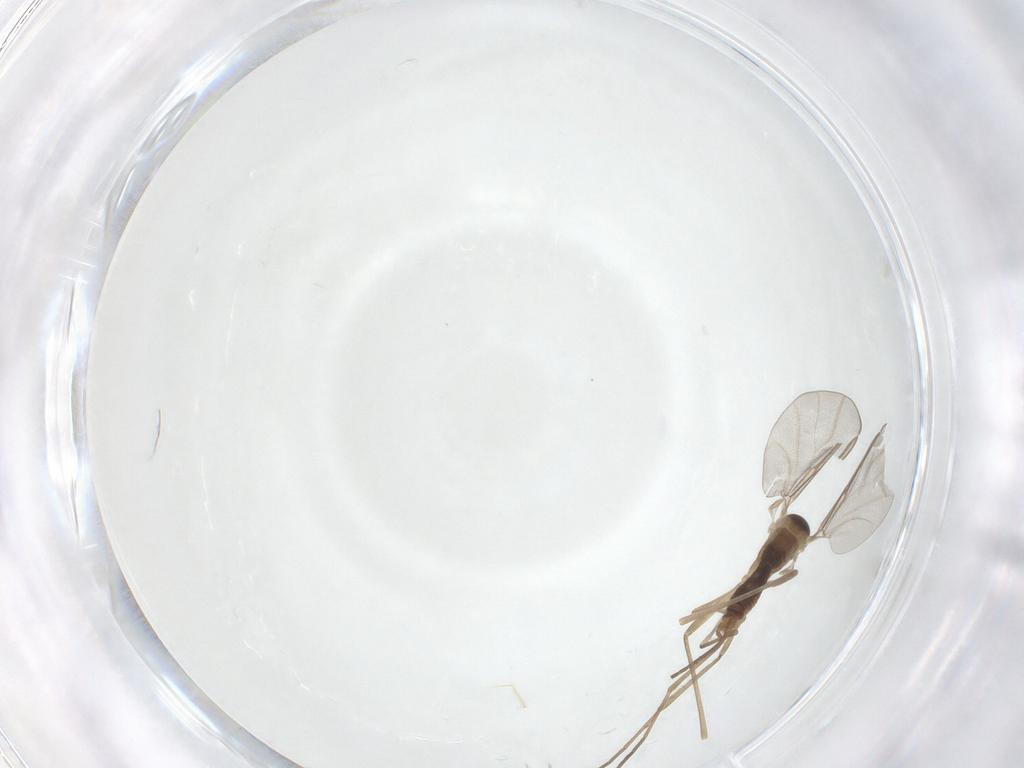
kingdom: Animalia
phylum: Arthropoda
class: Insecta
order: Diptera
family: Cecidomyiidae
